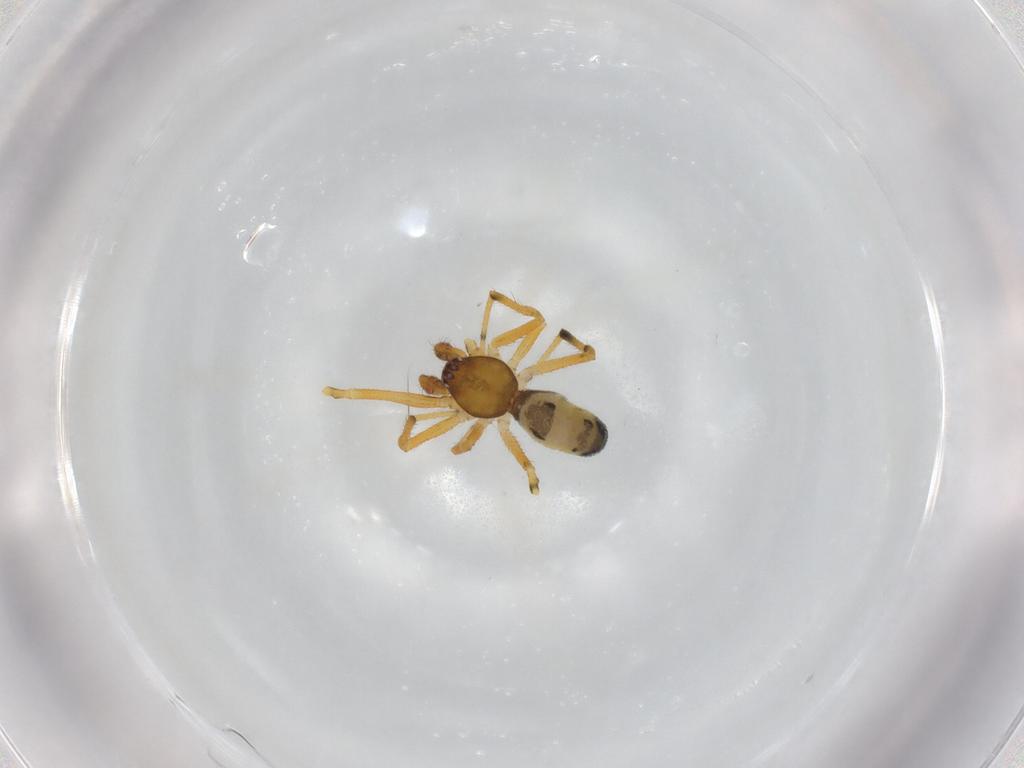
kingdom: Animalia
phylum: Arthropoda
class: Arachnida
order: Araneae
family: Theridiidae
